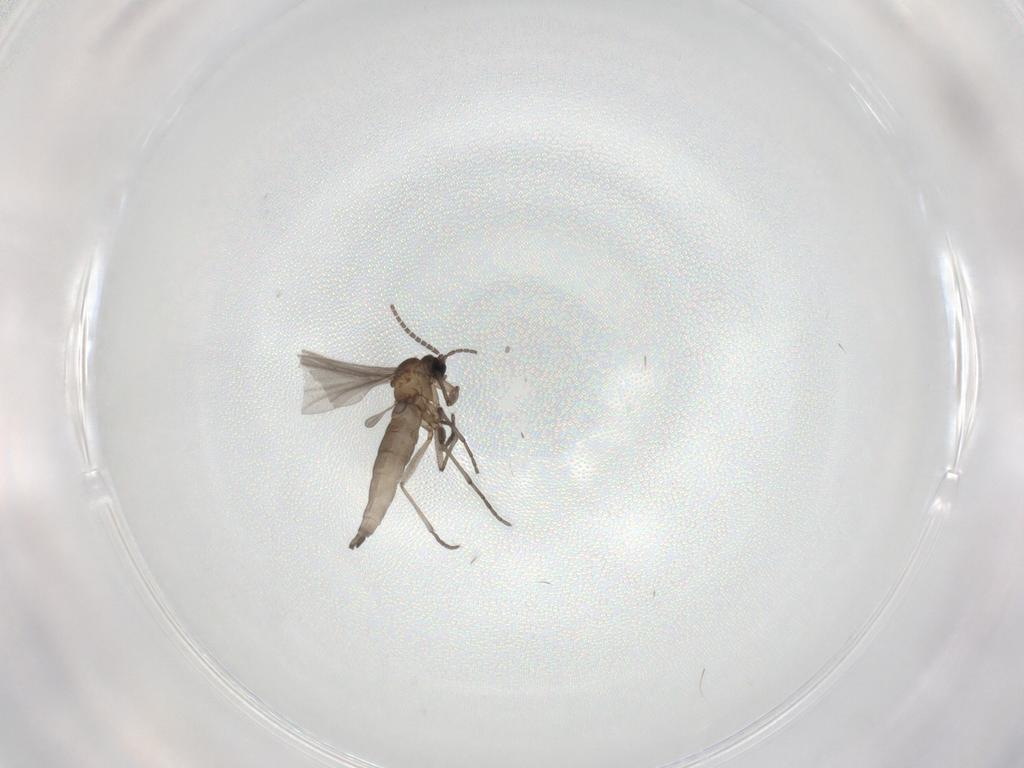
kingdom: Animalia
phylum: Arthropoda
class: Insecta
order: Diptera
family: Sciaridae
